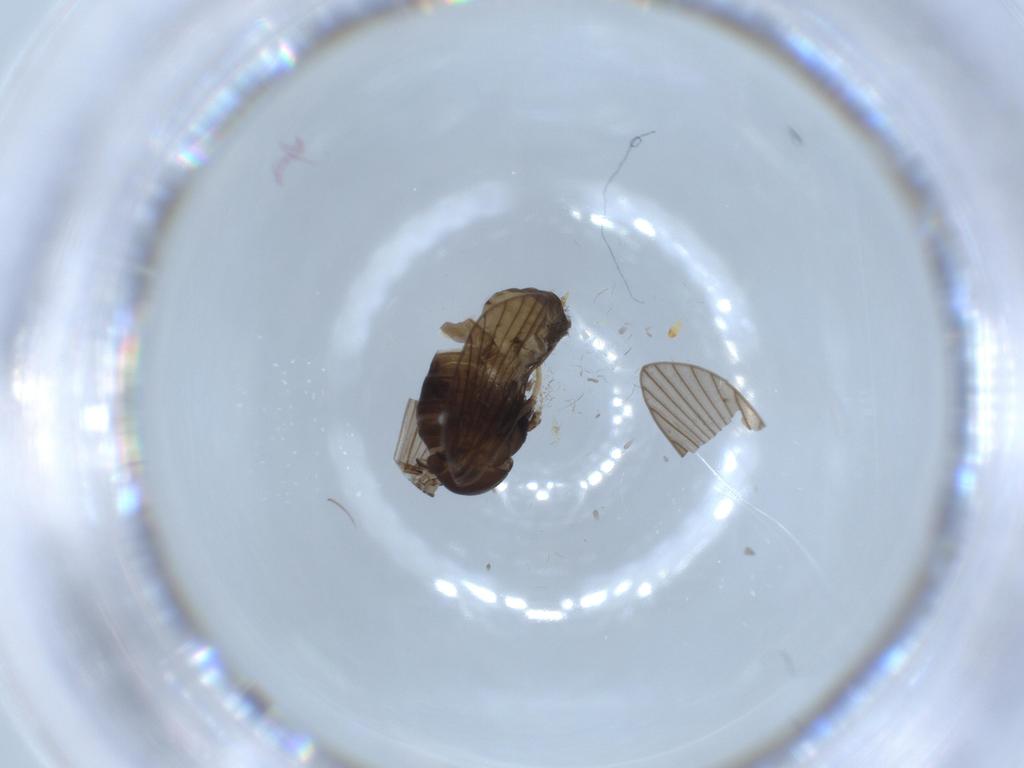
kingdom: Animalia
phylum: Arthropoda
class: Insecta
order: Diptera
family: Psychodidae
